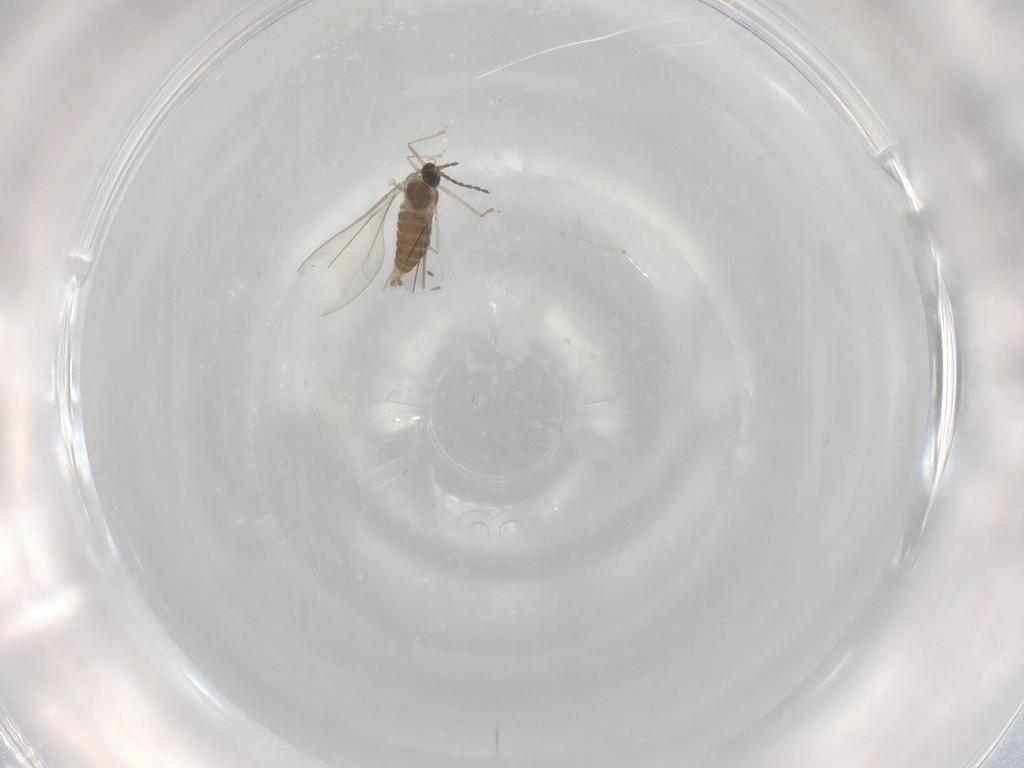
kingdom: Animalia
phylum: Arthropoda
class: Insecta
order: Diptera
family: Cecidomyiidae
